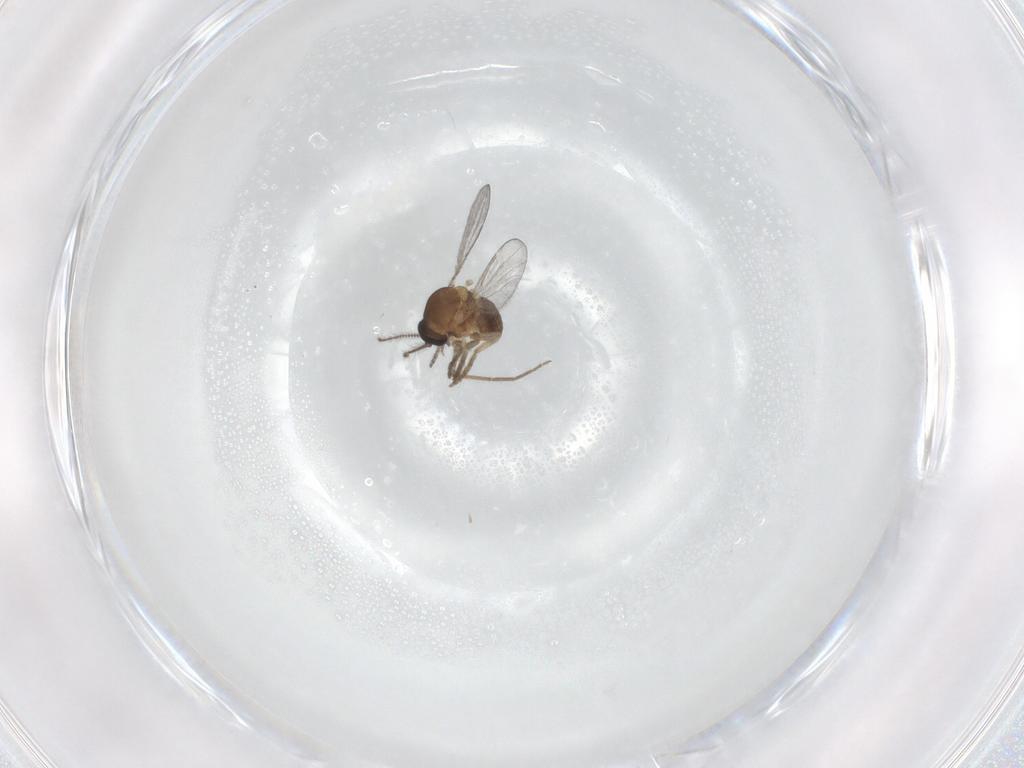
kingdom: Animalia
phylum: Arthropoda
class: Insecta
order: Diptera
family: Chironomidae
